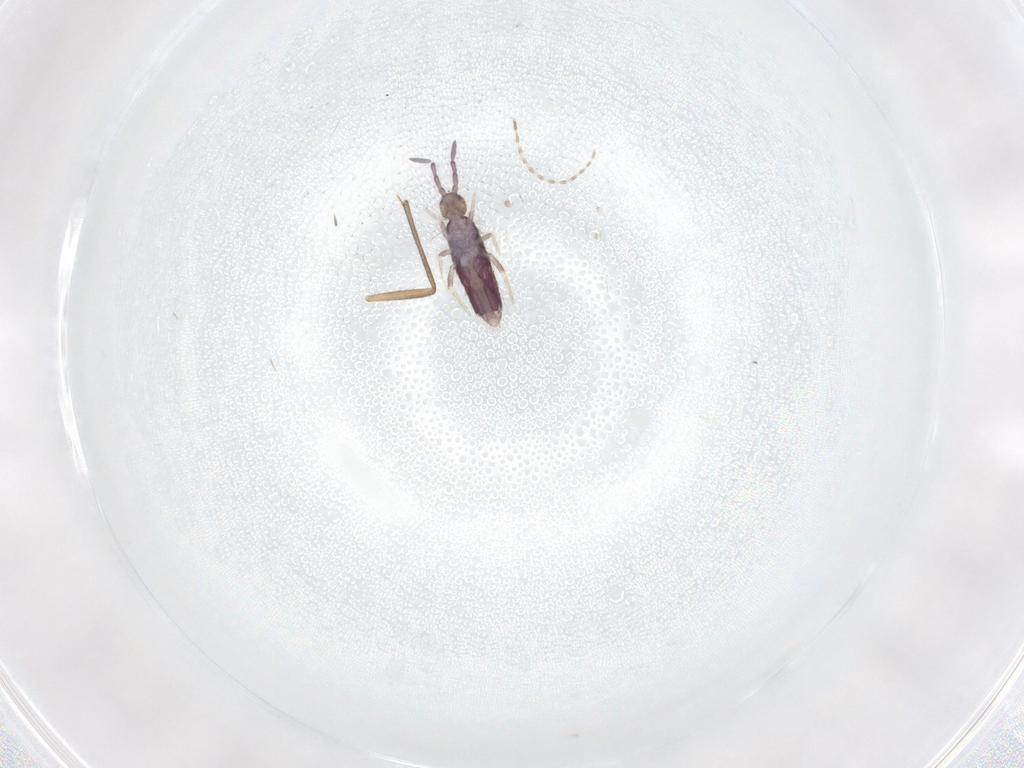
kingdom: Animalia
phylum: Arthropoda
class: Collembola
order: Entomobryomorpha
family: Entomobryidae
